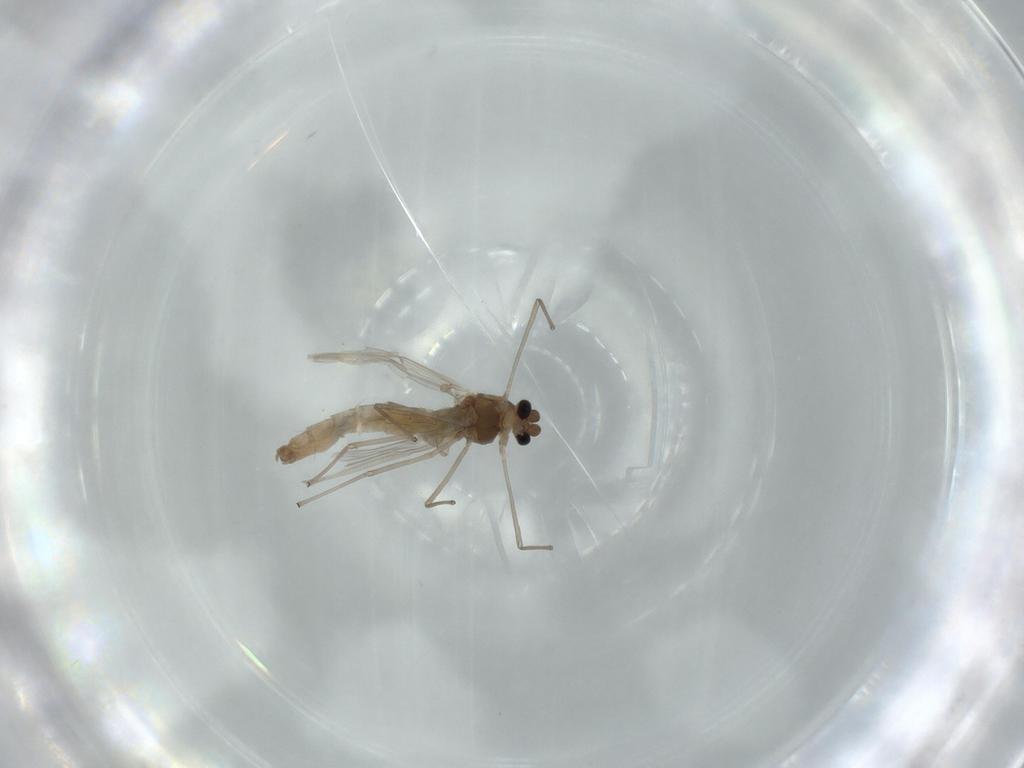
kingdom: Animalia
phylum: Arthropoda
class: Insecta
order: Diptera
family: Chironomidae
